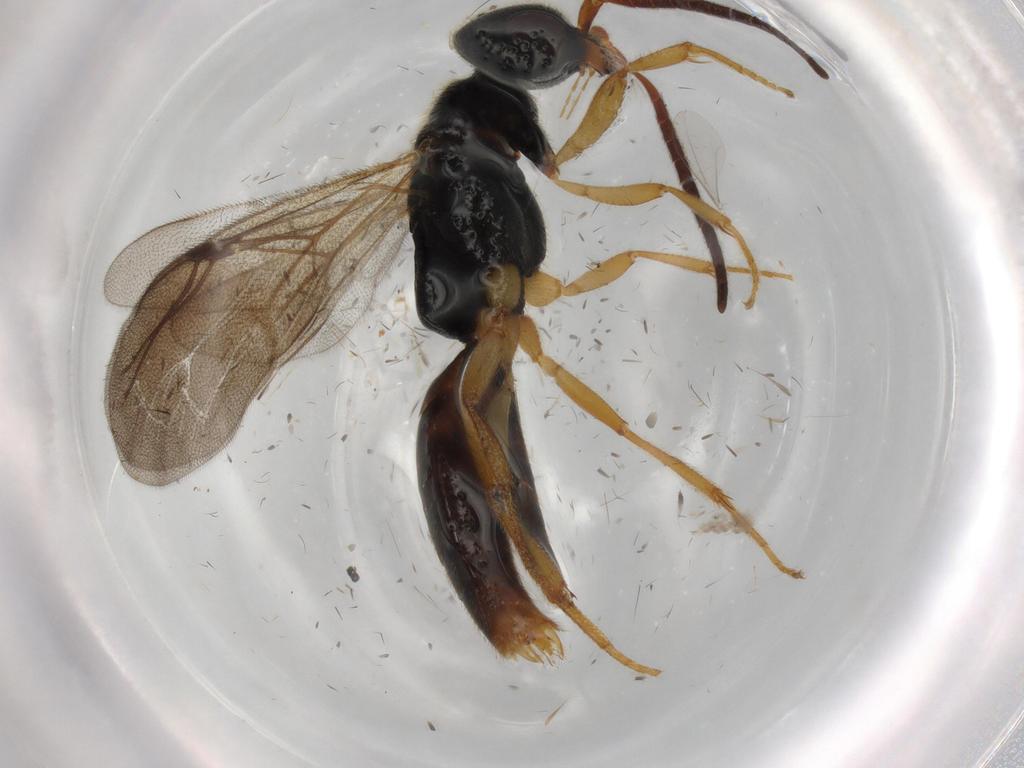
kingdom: Animalia
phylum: Arthropoda
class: Insecta
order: Hymenoptera
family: Bethylidae
